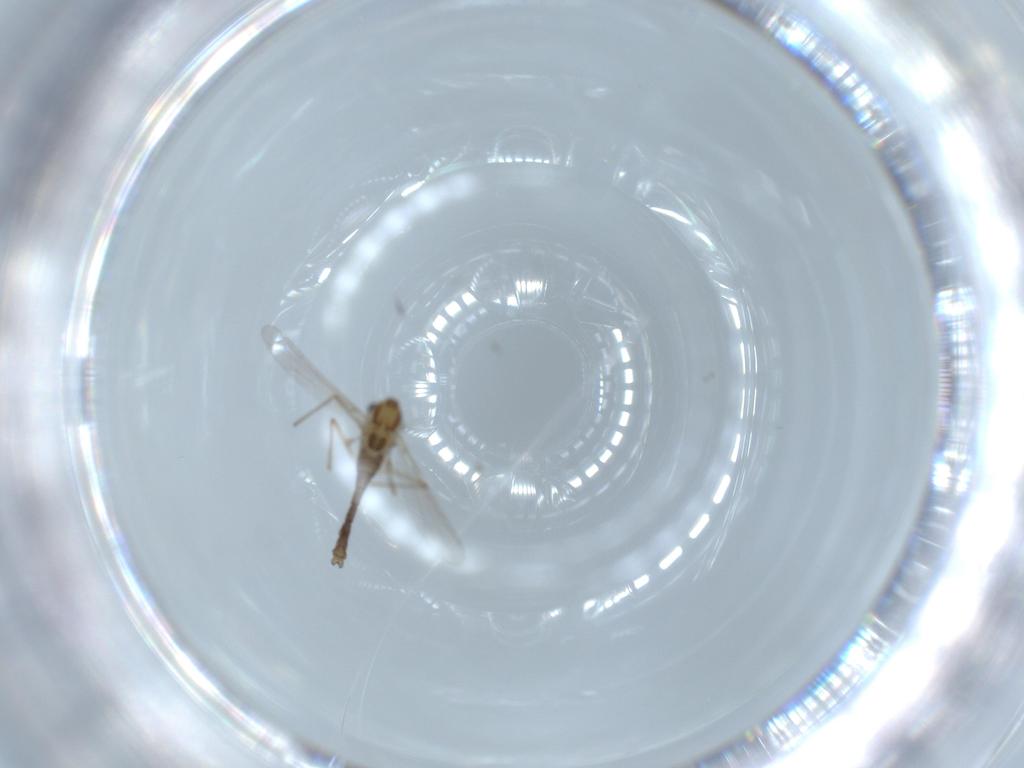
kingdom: Animalia
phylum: Arthropoda
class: Insecta
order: Diptera
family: Chironomidae
